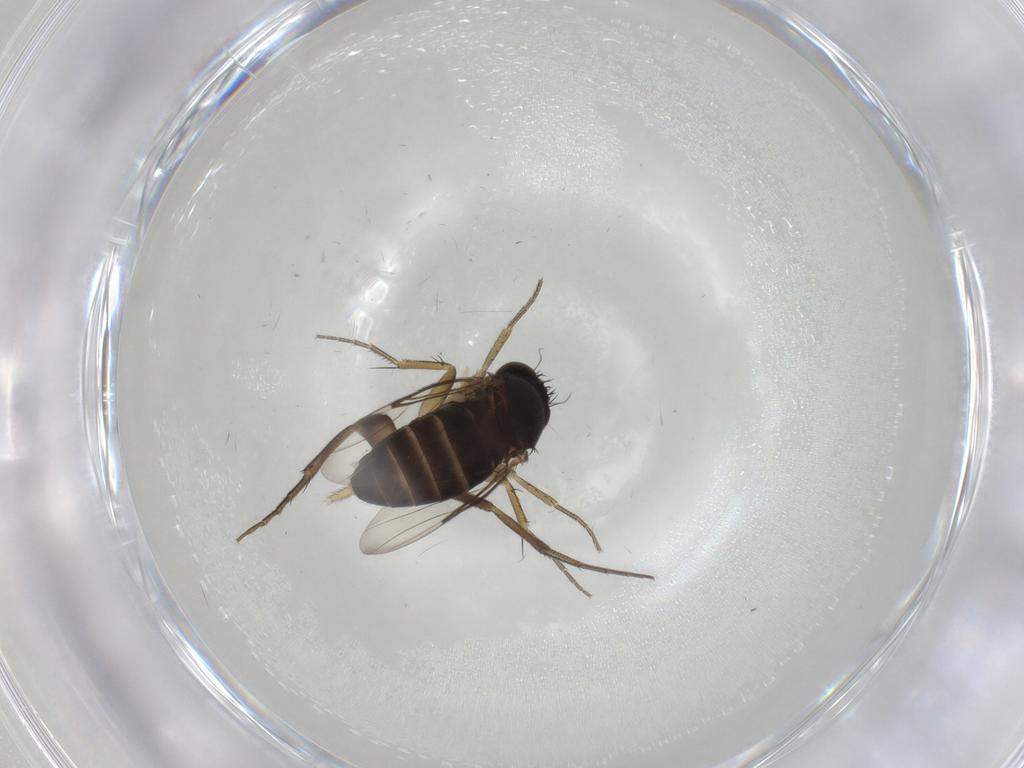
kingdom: Animalia
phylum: Arthropoda
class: Insecta
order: Diptera
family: Phoridae
